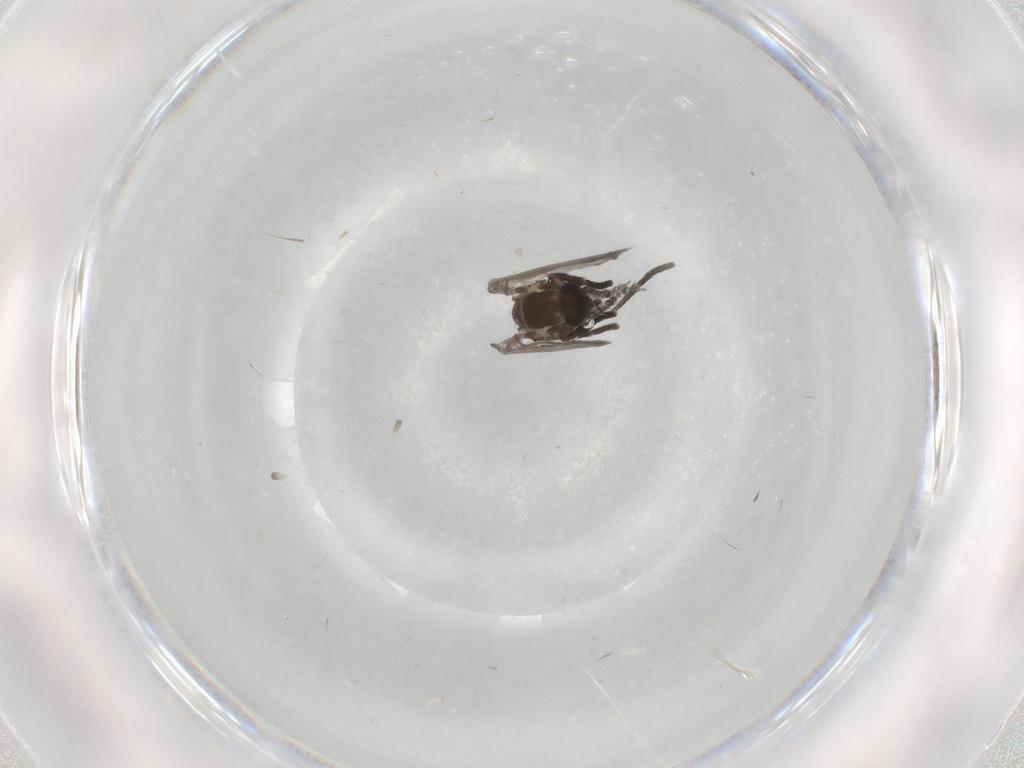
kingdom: Animalia
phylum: Arthropoda
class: Insecta
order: Diptera
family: Psychodidae
